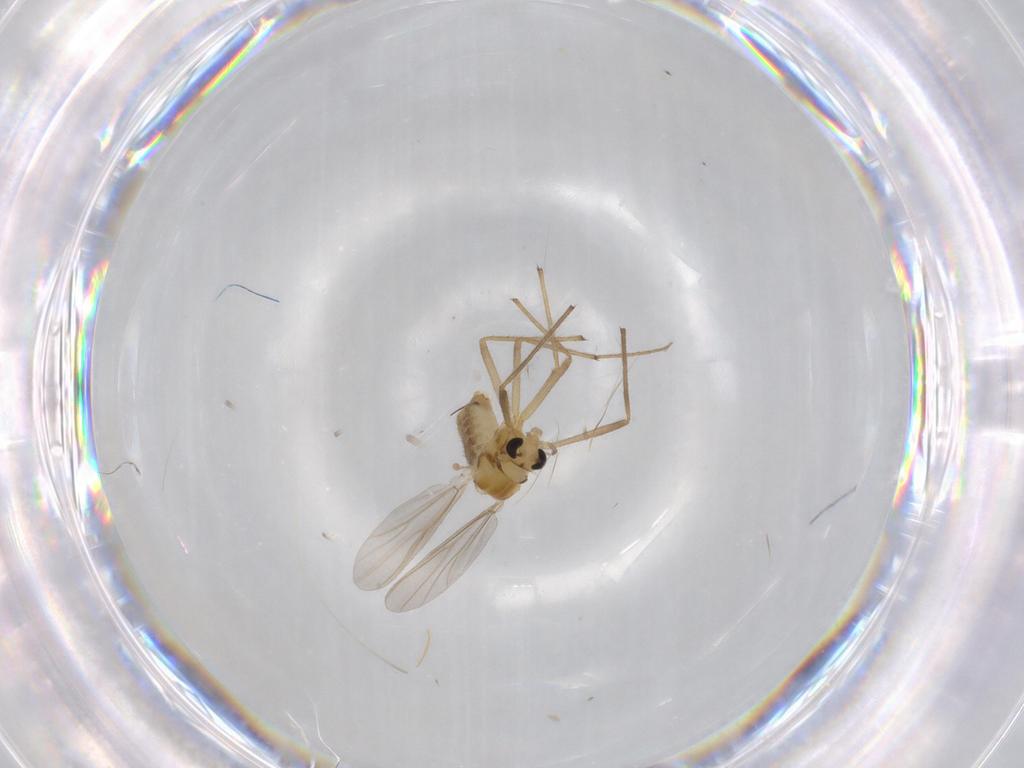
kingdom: Animalia
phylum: Arthropoda
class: Insecta
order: Diptera
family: Chironomidae
